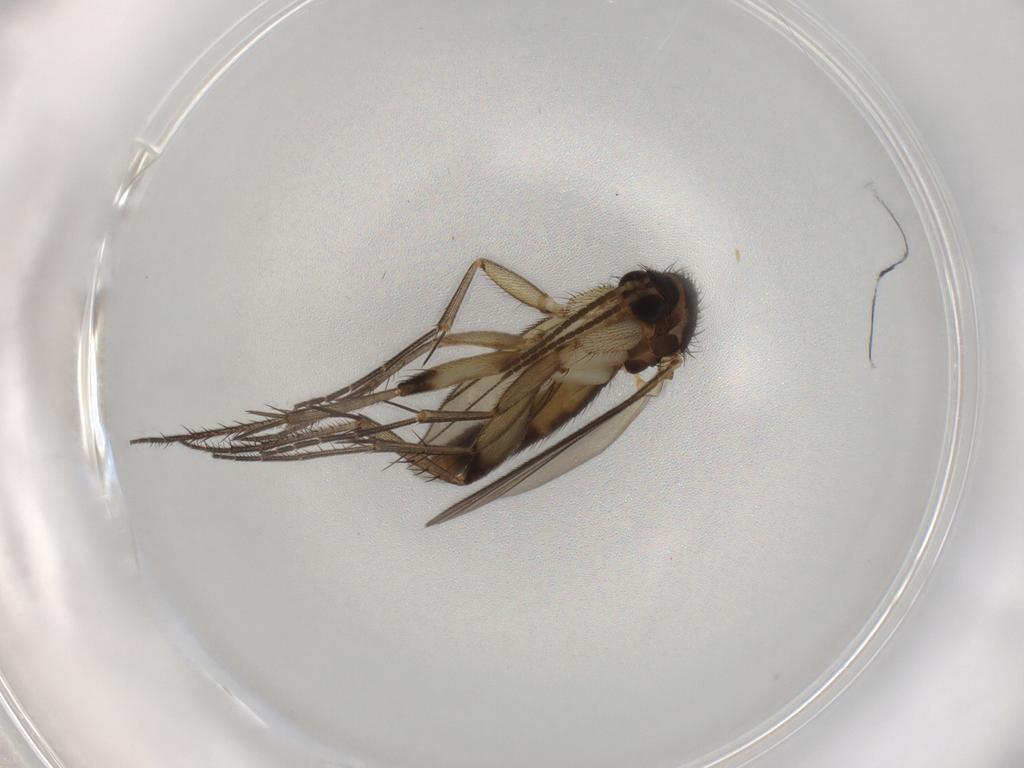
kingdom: Animalia
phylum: Arthropoda
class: Insecta
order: Diptera
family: Mycetophilidae
